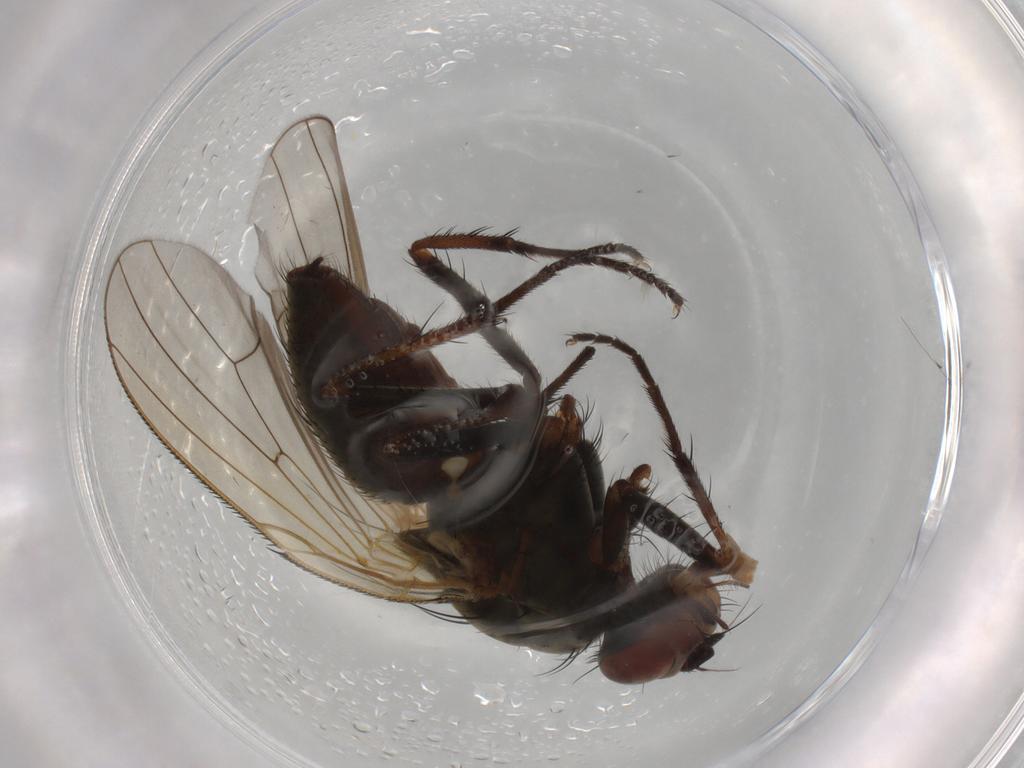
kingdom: Animalia
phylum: Arthropoda
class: Insecta
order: Diptera
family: Anthomyiidae
